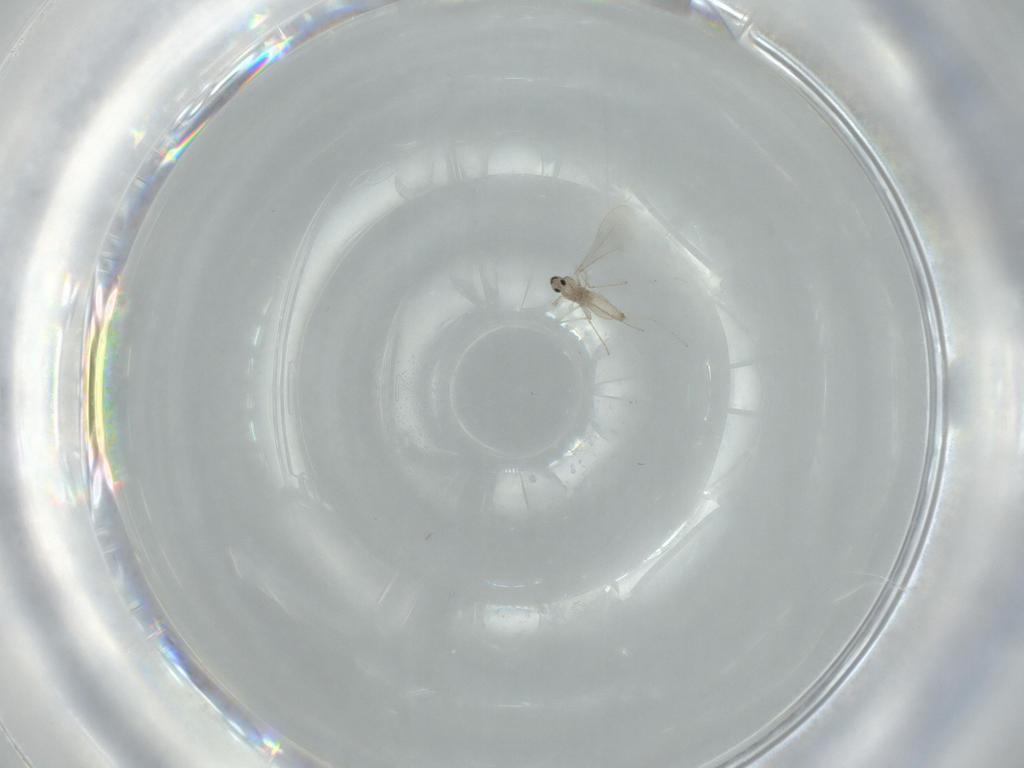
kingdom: Animalia
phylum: Arthropoda
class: Insecta
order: Diptera
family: Cecidomyiidae
